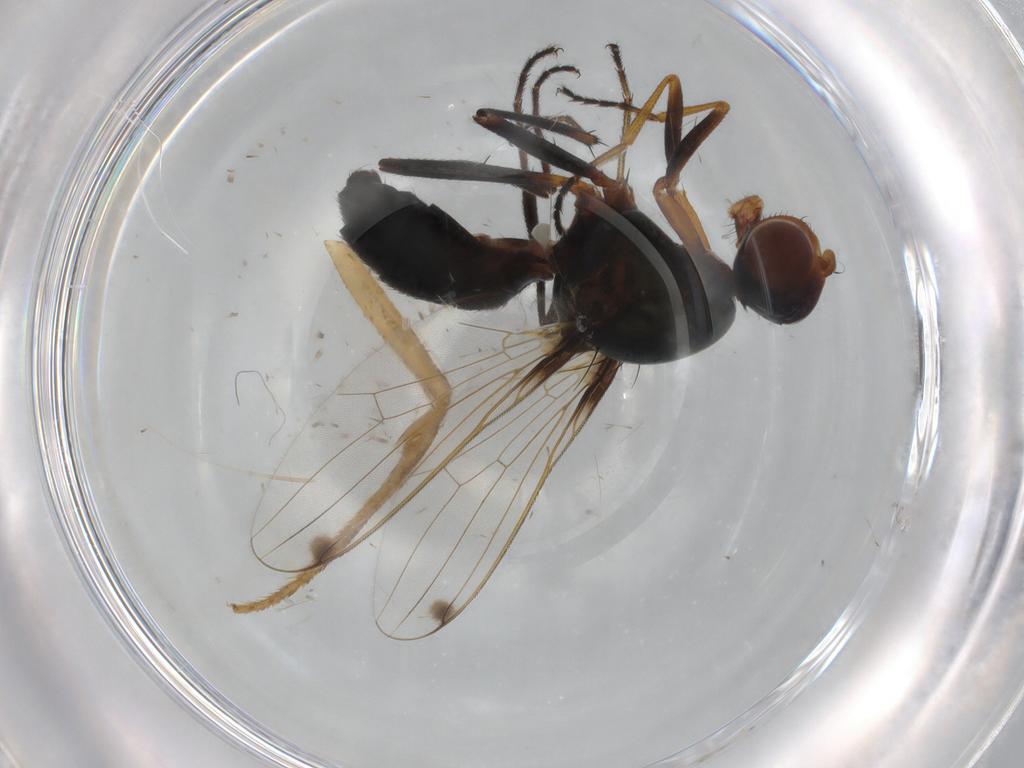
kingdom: Animalia
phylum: Arthropoda
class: Insecta
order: Diptera
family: Sepsidae
